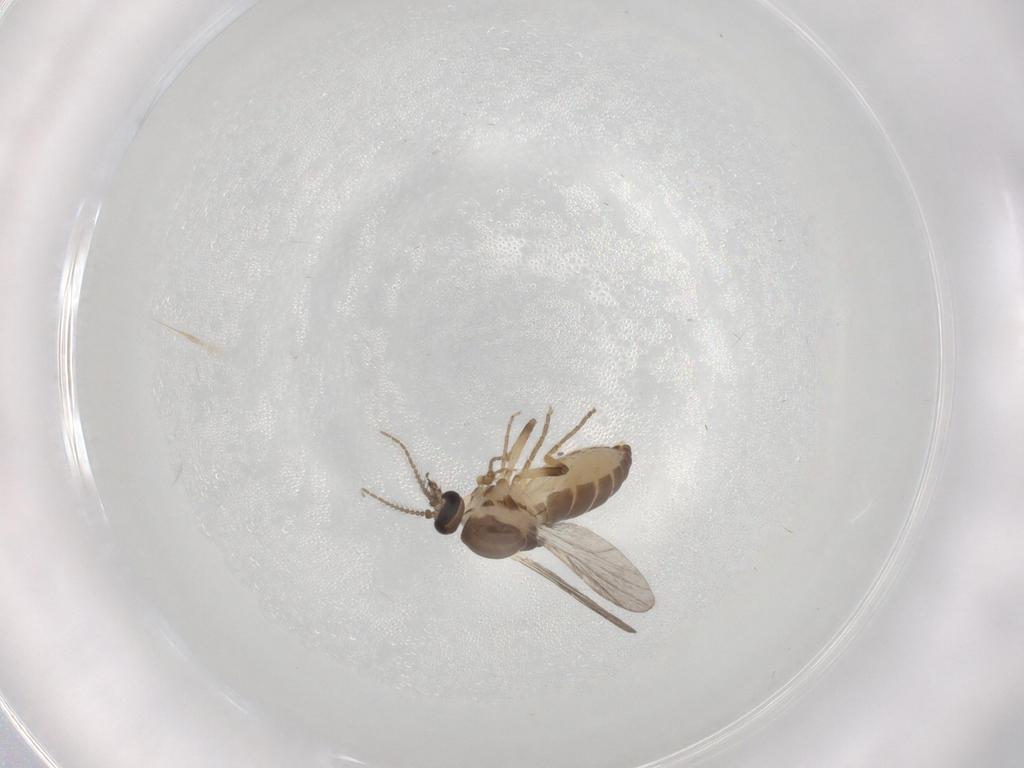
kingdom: Animalia
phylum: Arthropoda
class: Insecta
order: Diptera
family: Ceratopogonidae
